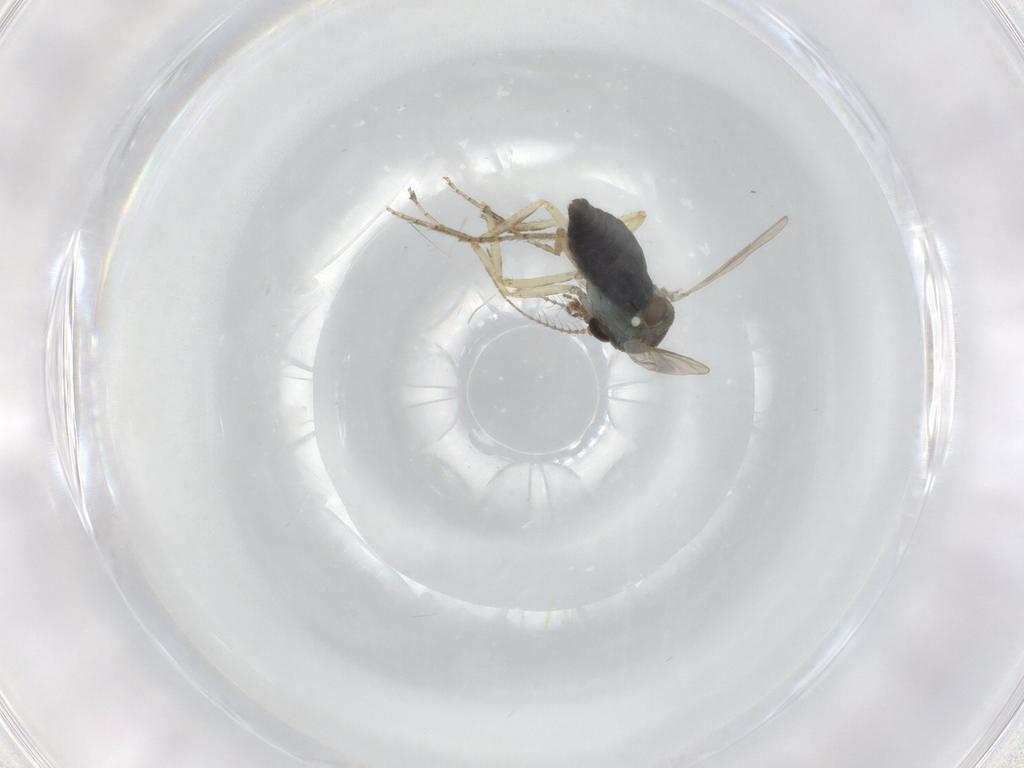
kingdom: Animalia
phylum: Arthropoda
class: Insecta
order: Diptera
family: Ceratopogonidae
